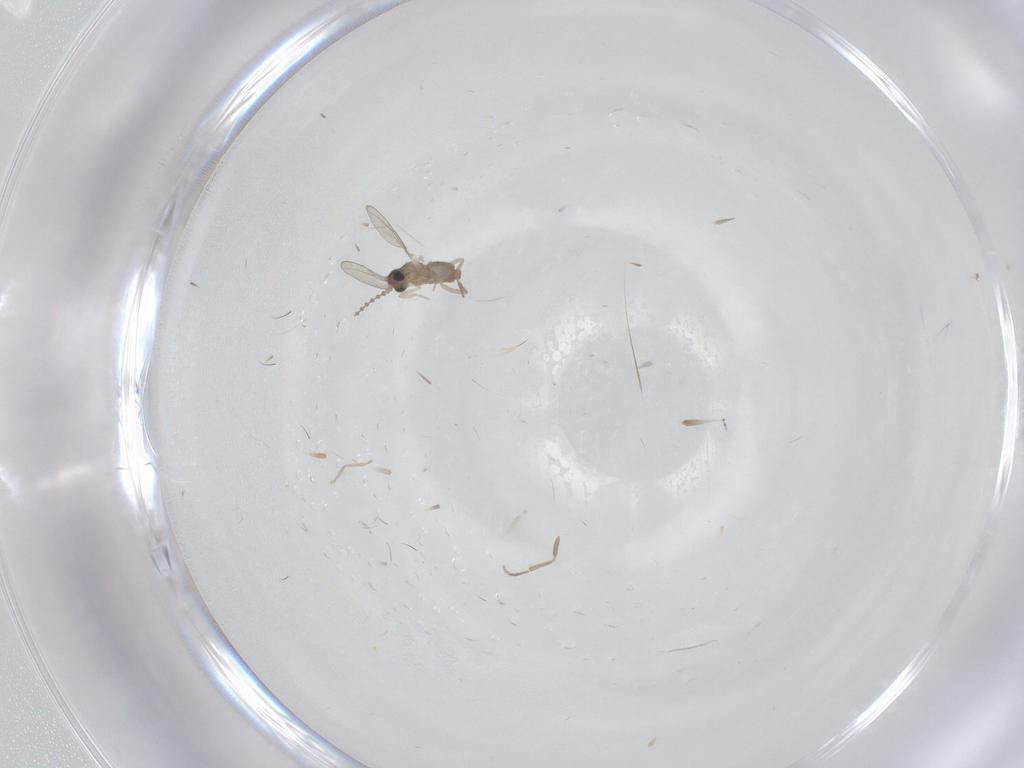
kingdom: Animalia
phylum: Arthropoda
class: Insecta
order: Diptera
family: Cecidomyiidae
